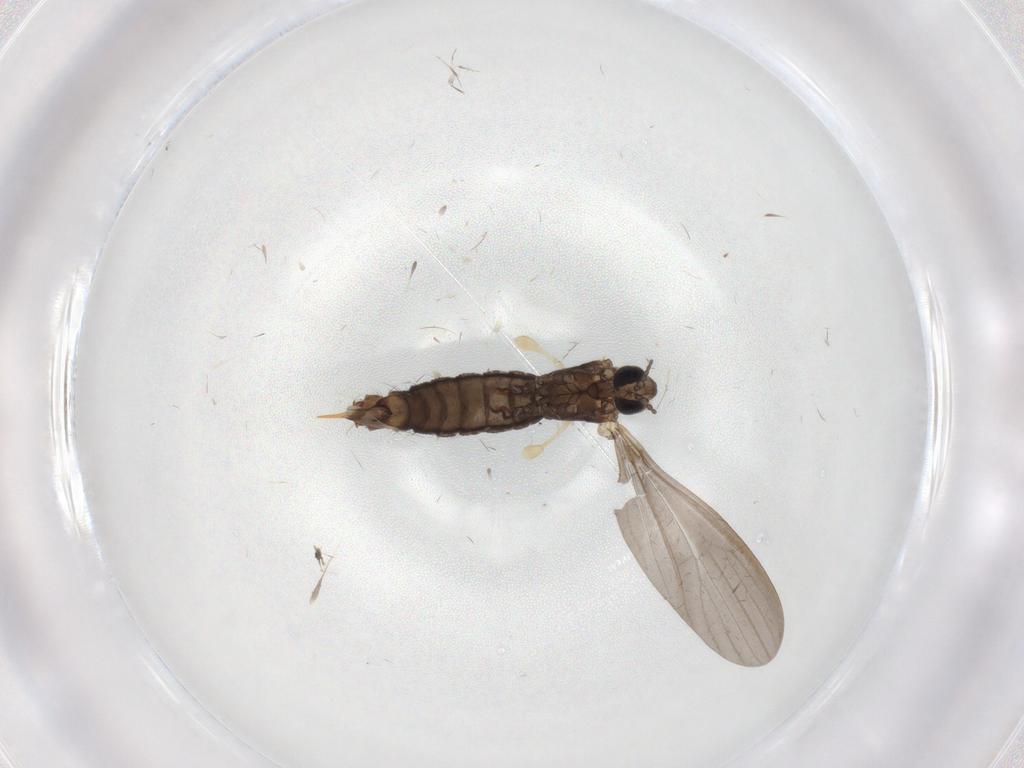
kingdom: Animalia
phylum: Arthropoda
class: Insecta
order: Diptera
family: Limoniidae
